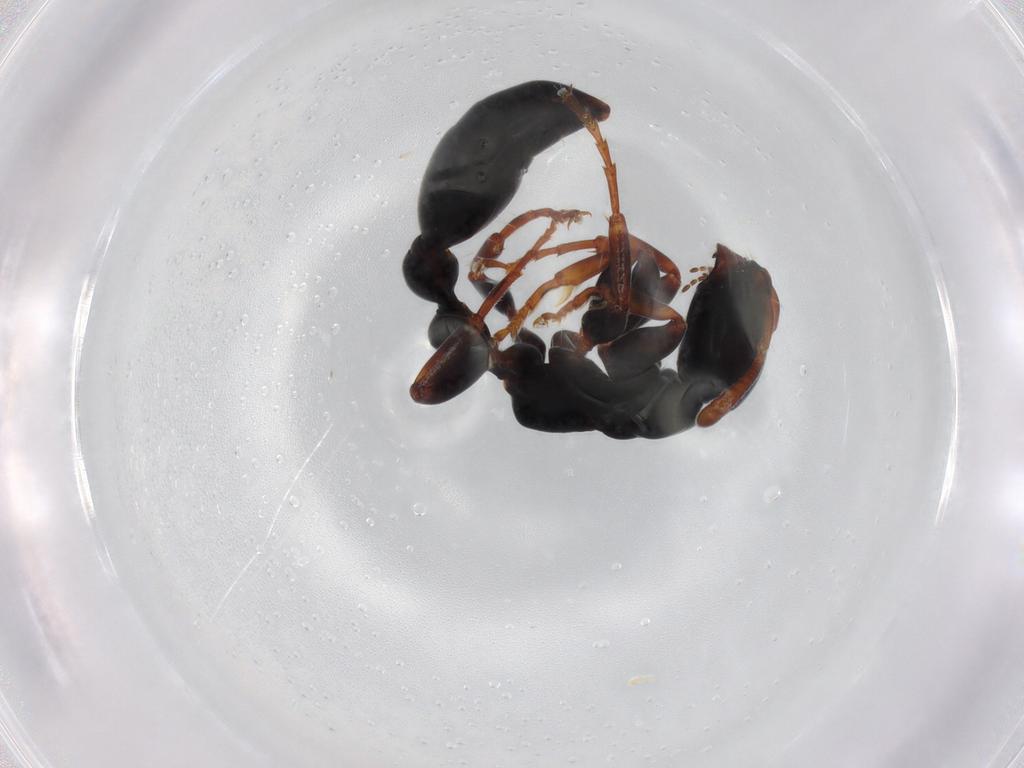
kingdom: Animalia
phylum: Arthropoda
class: Insecta
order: Hymenoptera
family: Formicidae
